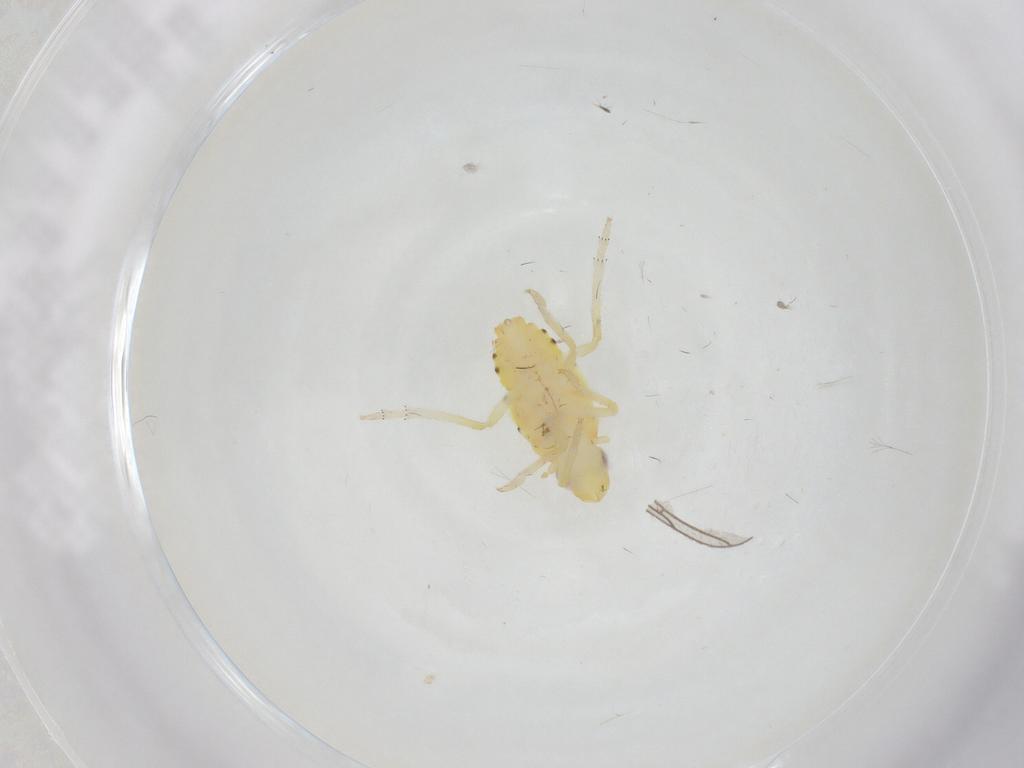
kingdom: Animalia
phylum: Arthropoda
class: Insecta
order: Hemiptera
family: Tropiduchidae
